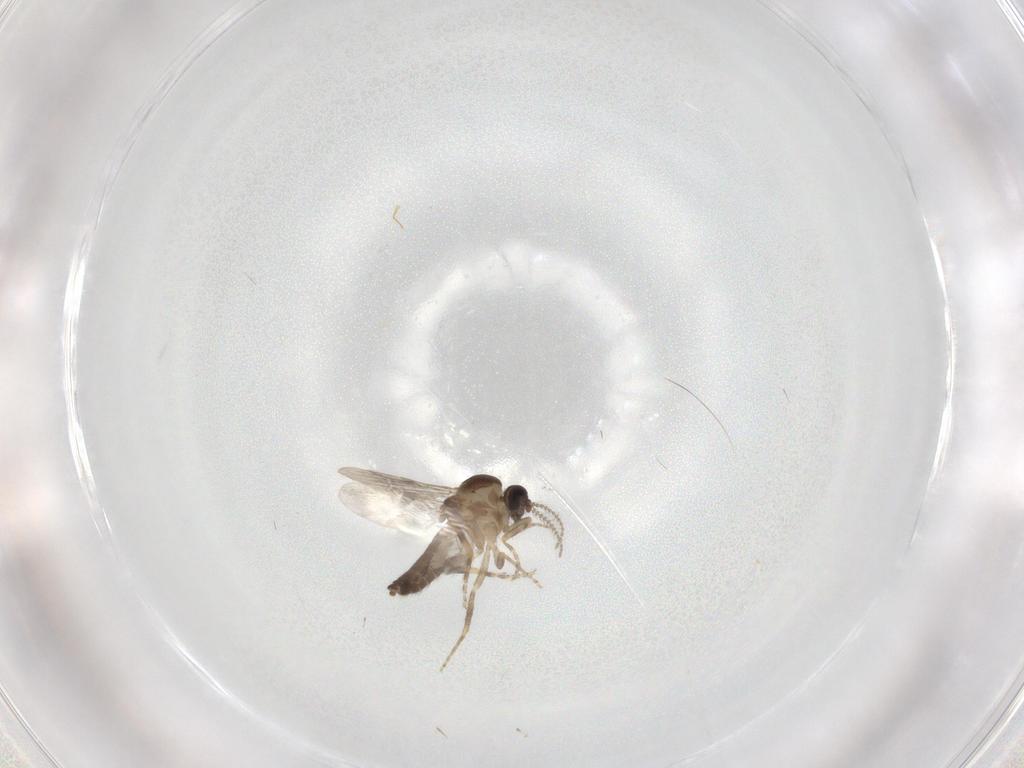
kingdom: Animalia
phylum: Arthropoda
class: Insecta
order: Diptera
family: Ceratopogonidae
